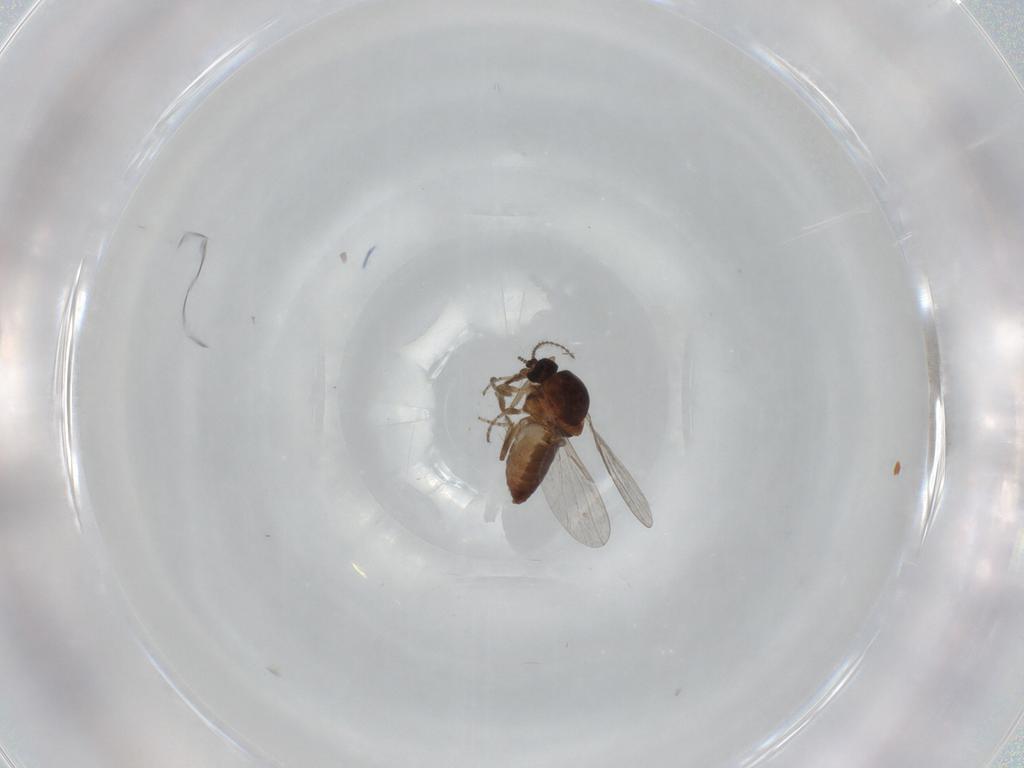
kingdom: Animalia
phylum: Arthropoda
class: Insecta
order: Diptera
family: Ceratopogonidae
